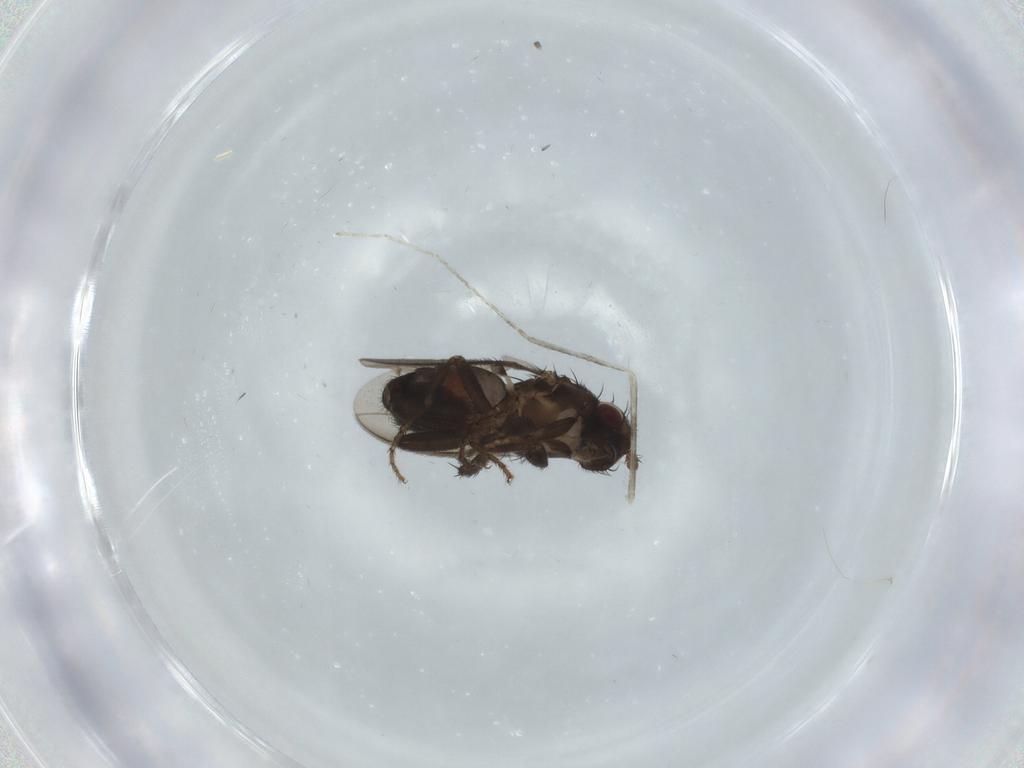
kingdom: Animalia
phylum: Arthropoda
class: Insecta
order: Diptera
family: Sphaeroceridae
